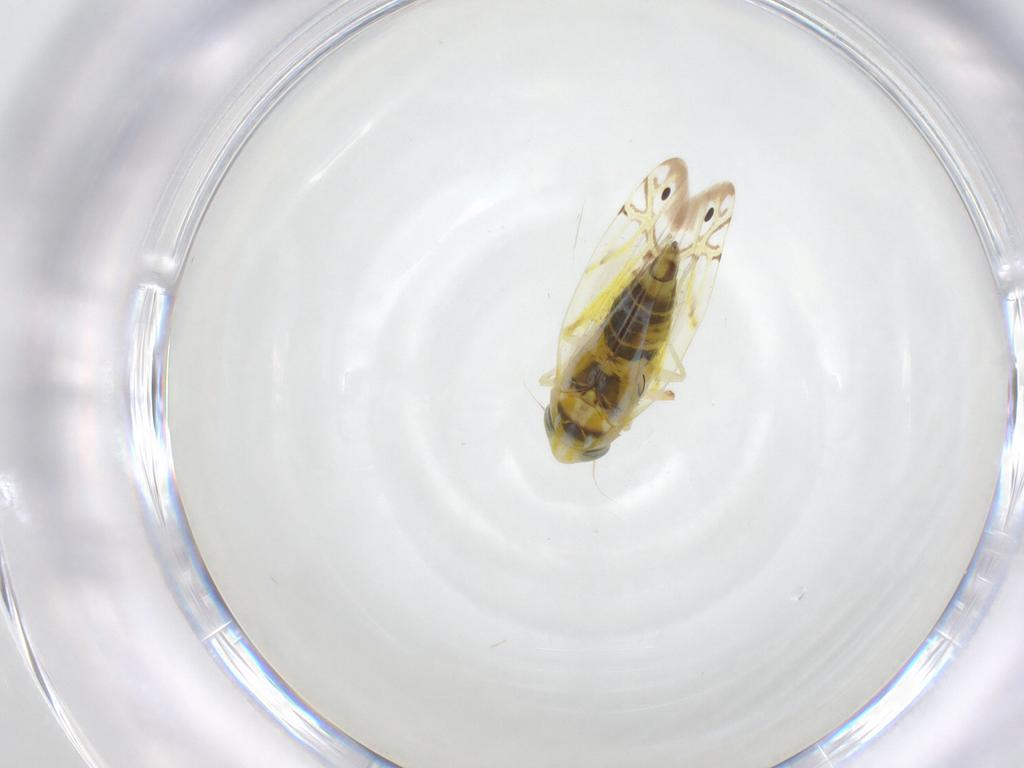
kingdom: Animalia
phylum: Arthropoda
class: Insecta
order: Hemiptera
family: Cicadellidae
